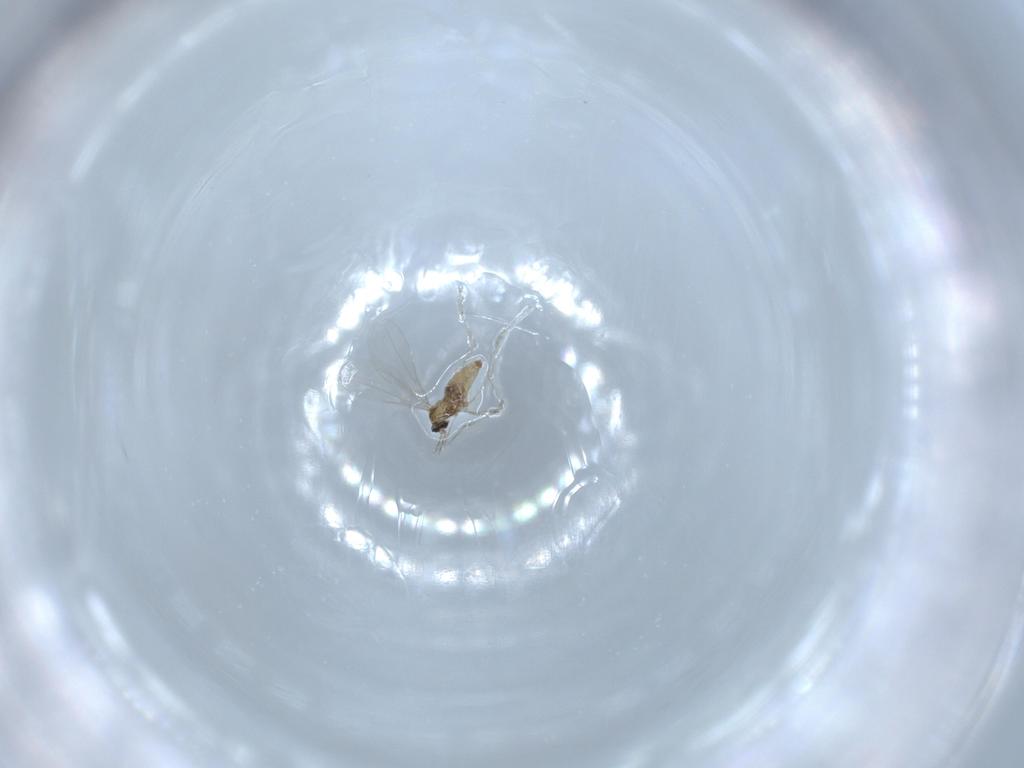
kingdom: Animalia
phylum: Arthropoda
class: Insecta
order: Diptera
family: Cecidomyiidae
